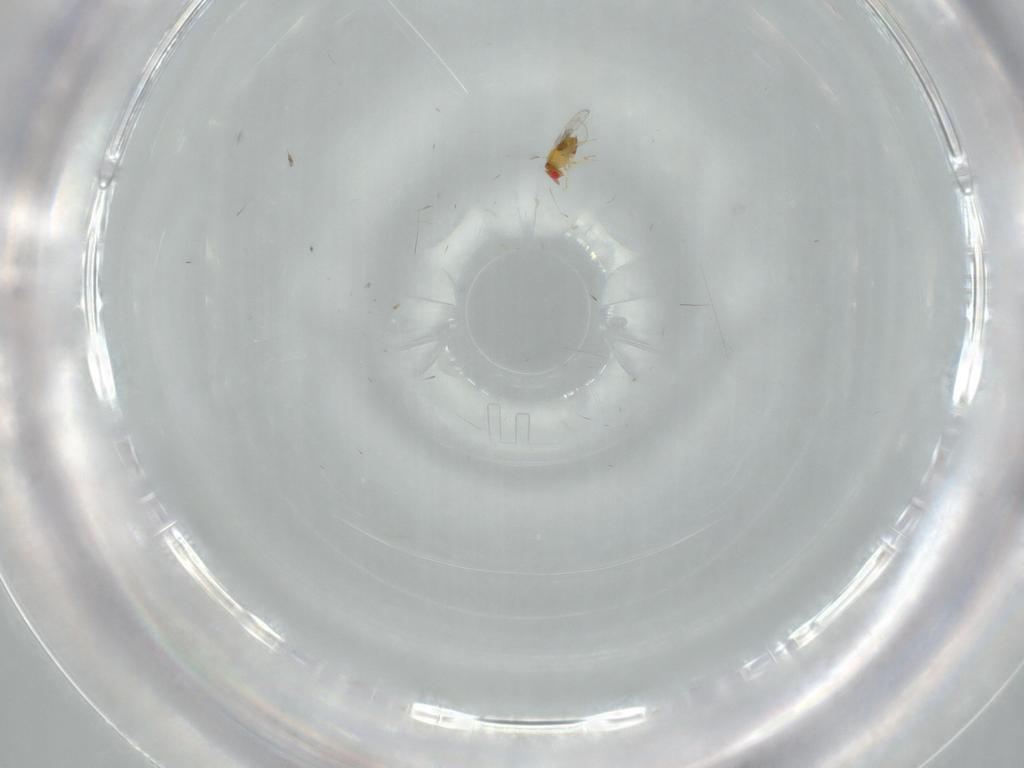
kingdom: Animalia
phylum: Arthropoda
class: Insecta
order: Hymenoptera
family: Trichogrammatidae
